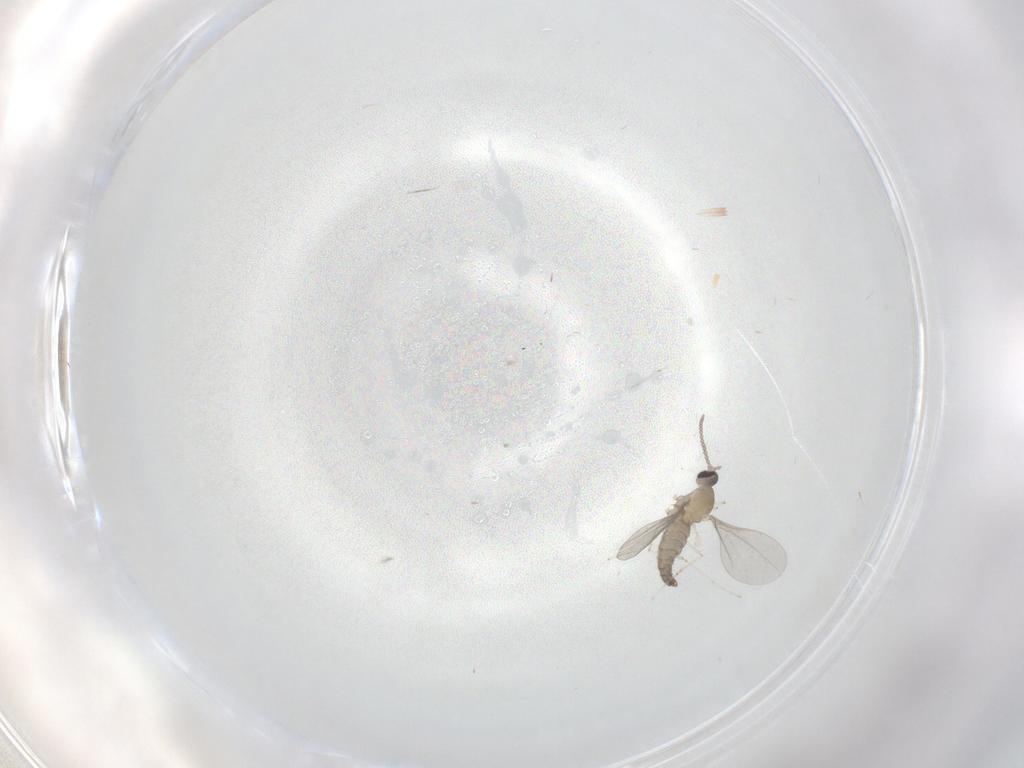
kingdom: Animalia
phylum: Arthropoda
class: Insecta
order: Diptera
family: Cecidomyiidae
